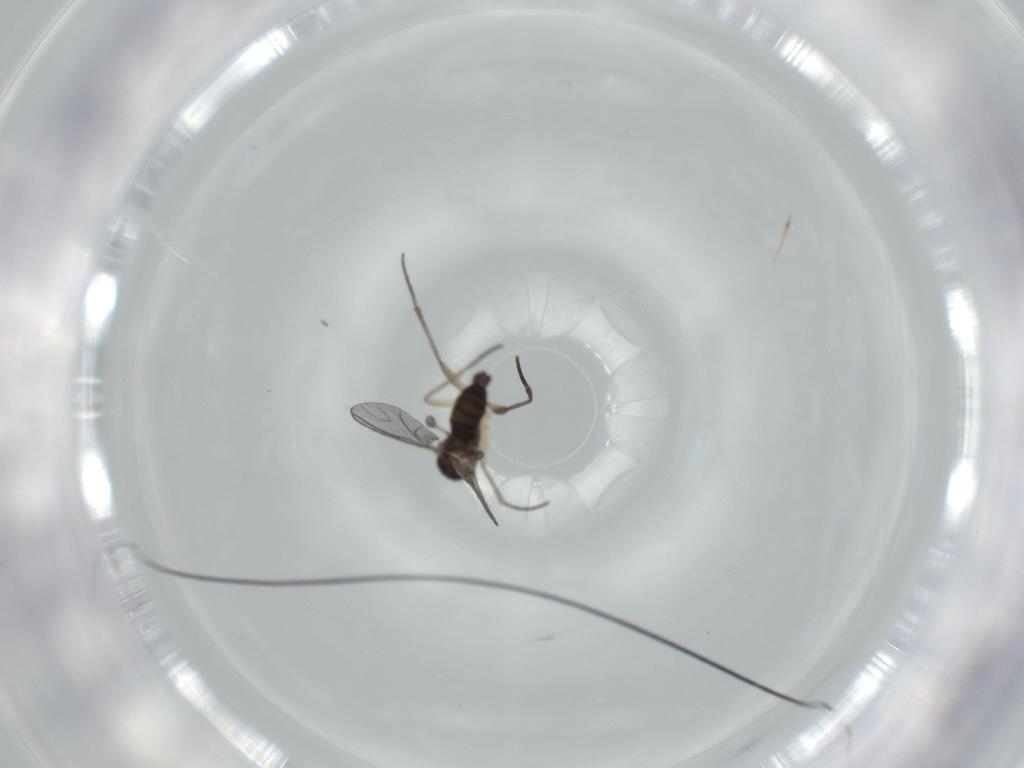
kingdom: Animalia
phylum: Arthropoda
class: Insecta
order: Diptera
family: Sciaridae
